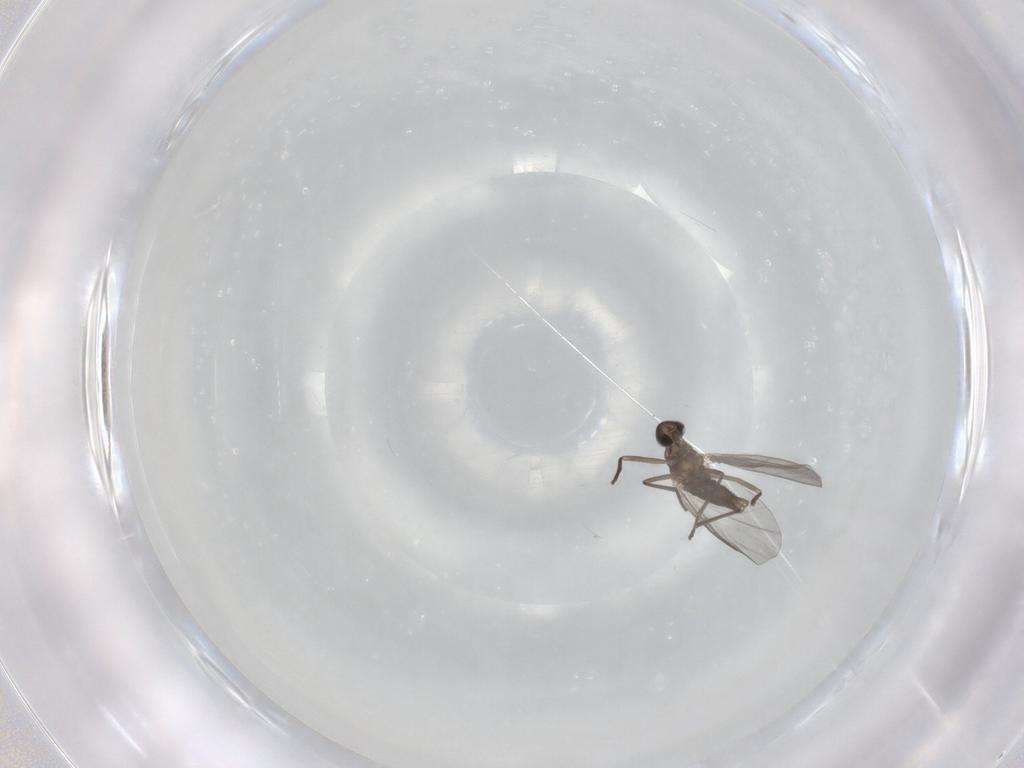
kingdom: Animalia
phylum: Arthropoda
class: Insecta
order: Diptera
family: Cecidomyiidae
